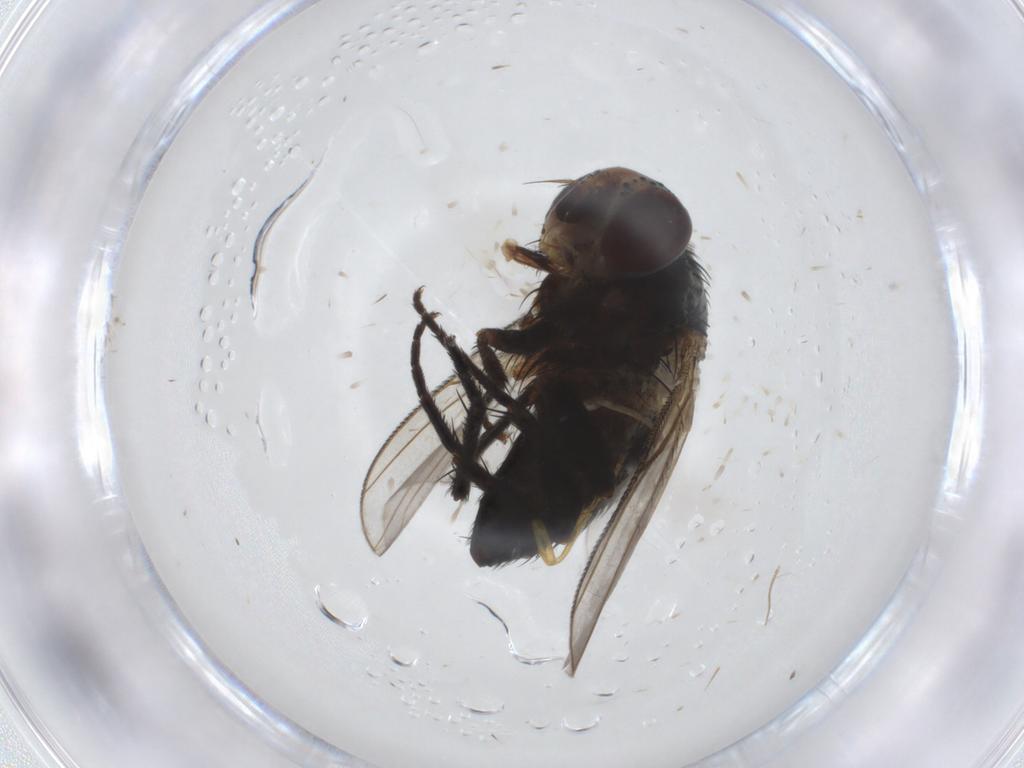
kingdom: Animalia
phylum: Arthropoda
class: Insecta
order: Diptera
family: Tachinidae
